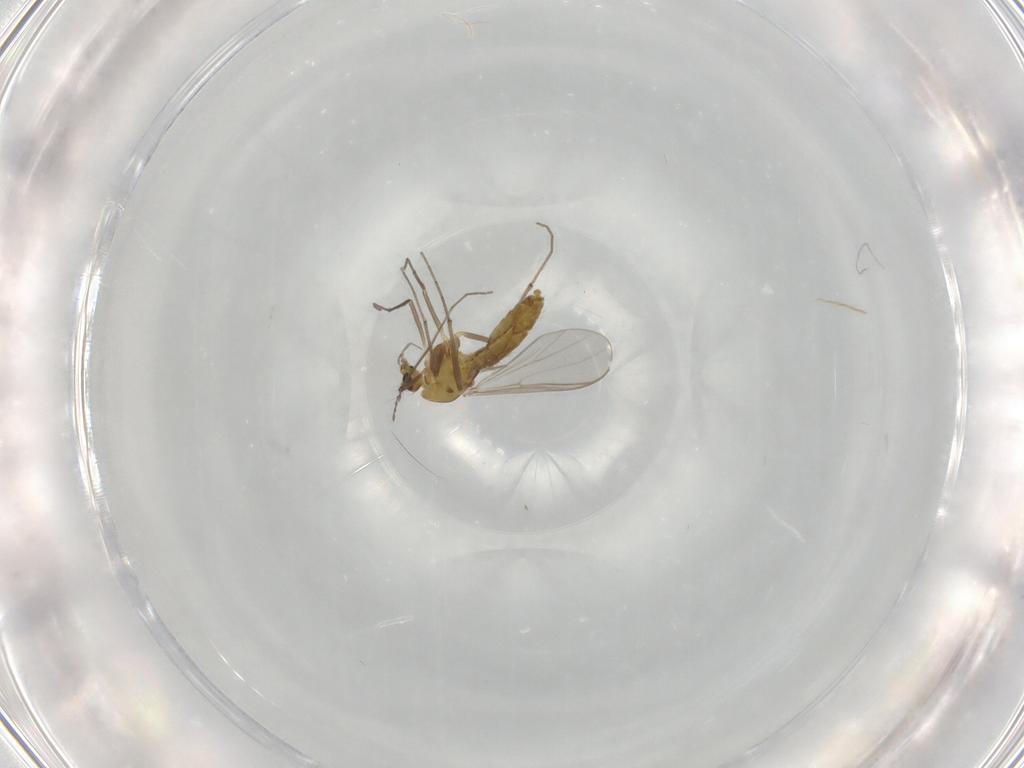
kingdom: Animalia
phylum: Arthropoda
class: Insecta
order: Diptera
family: Chironomidae
